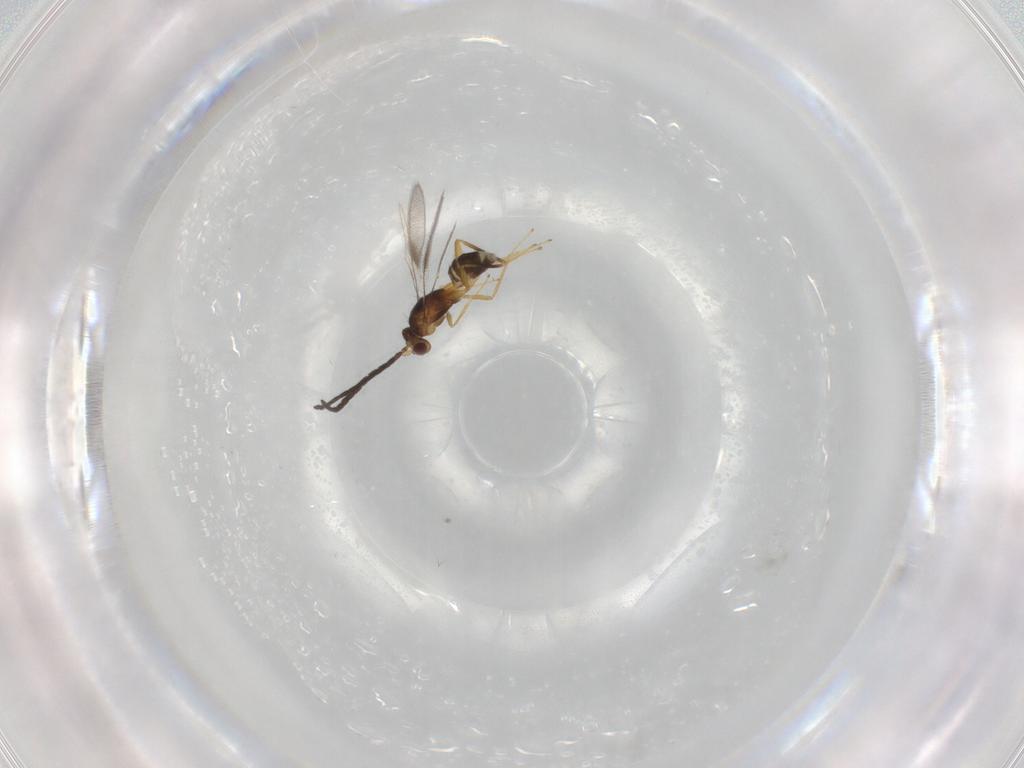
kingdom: Animalia
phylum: Arthropoda
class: Insecta
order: Hymenoptera
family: Mymaridae
